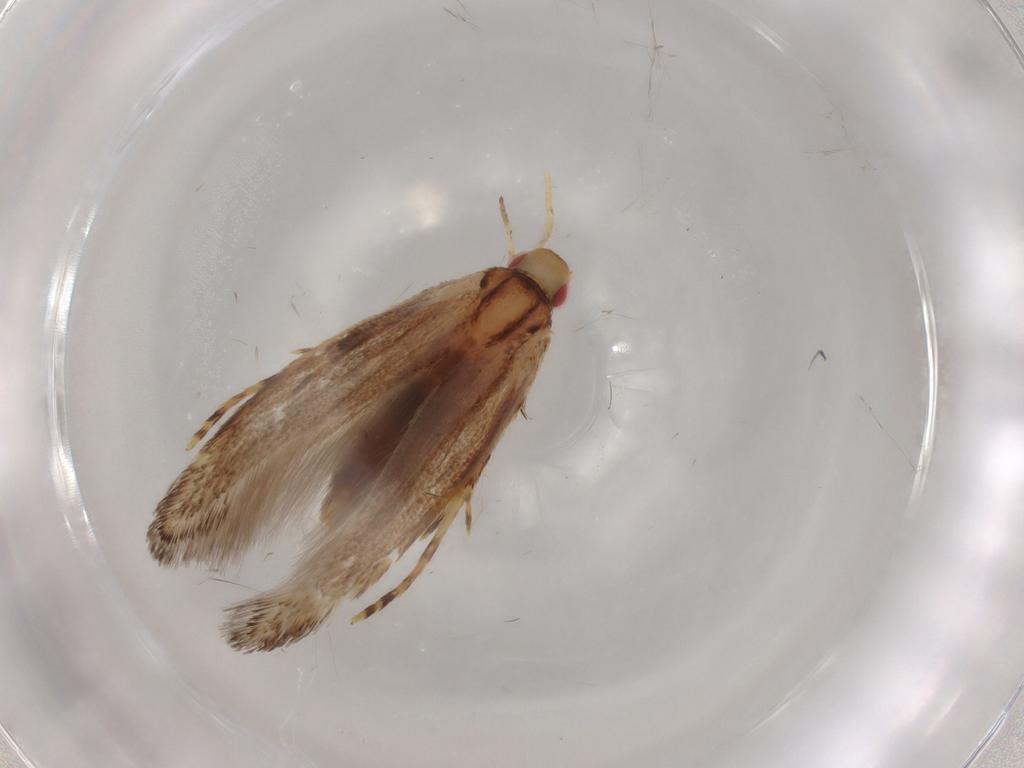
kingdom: Animalia
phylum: Arthropoda
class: Insecta
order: Lepidoptera
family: Cosmopterigidae
